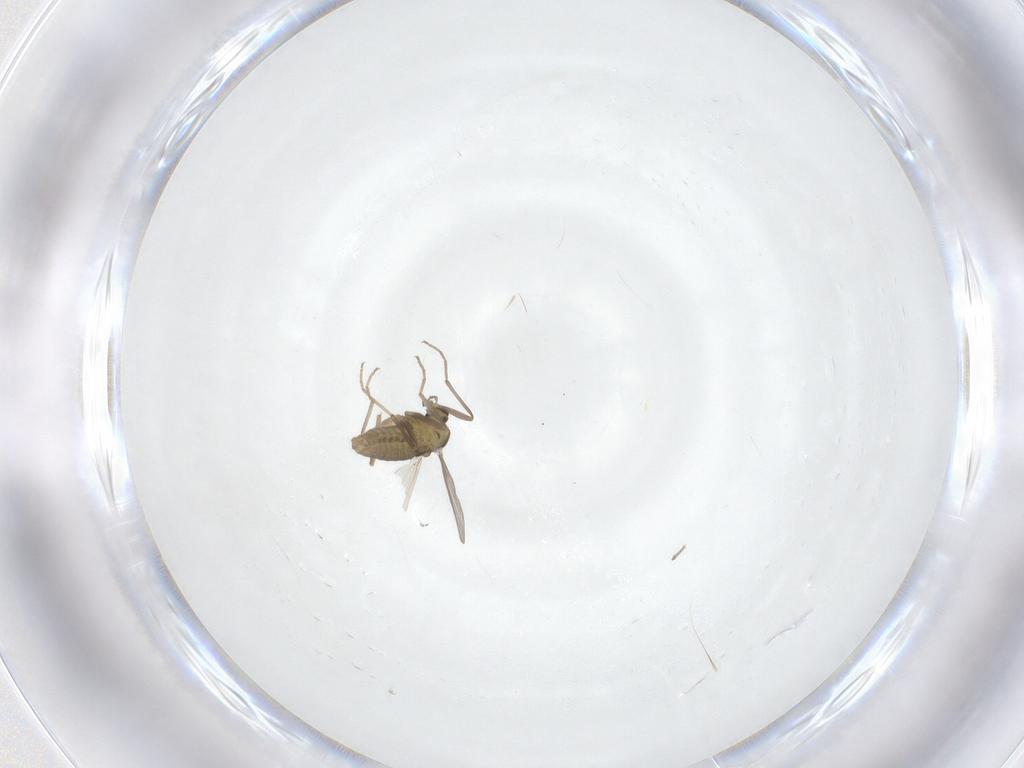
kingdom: Animalia
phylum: Arthropoda
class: Insecta
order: Diptera
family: Chironomidae
